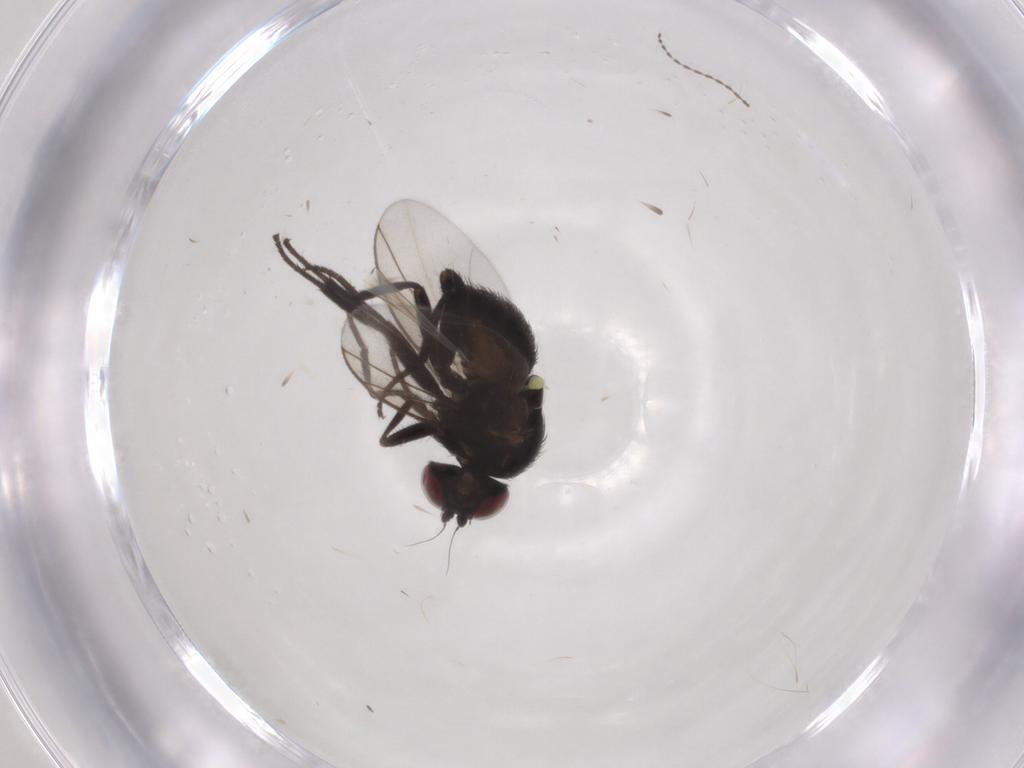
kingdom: Animalia
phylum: Arthropoda
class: Insecta
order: Diptera
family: Agromyzidae
